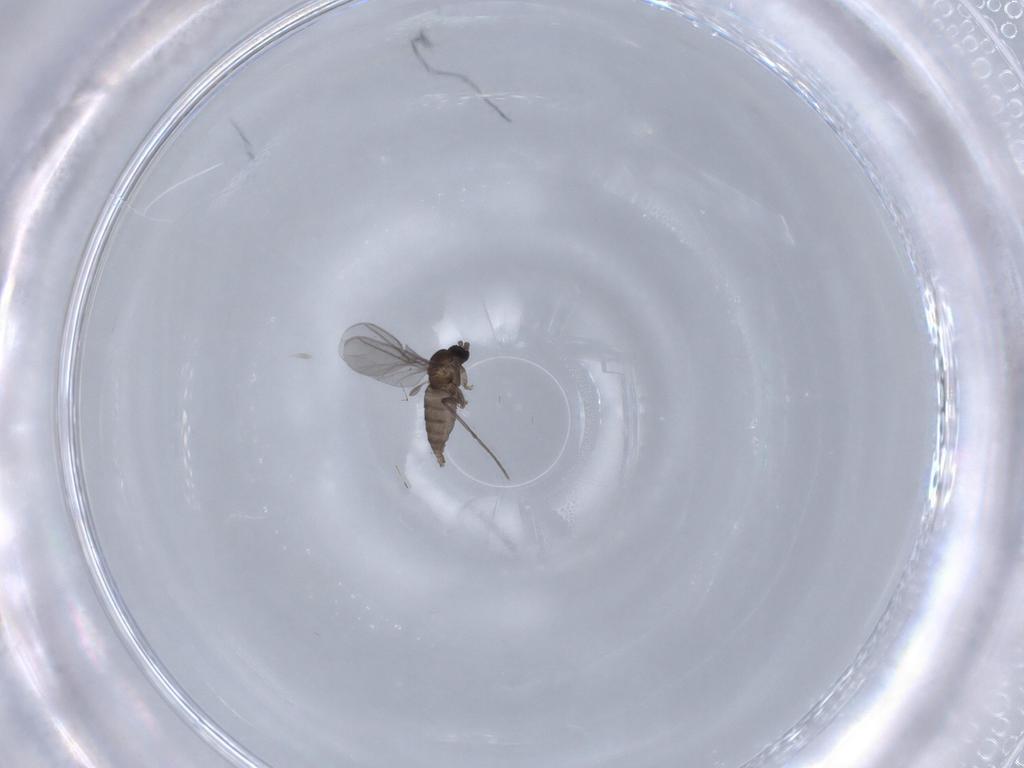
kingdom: Animalia
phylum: Arthropoda
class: Insecta
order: Diptera
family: Sciaridae
